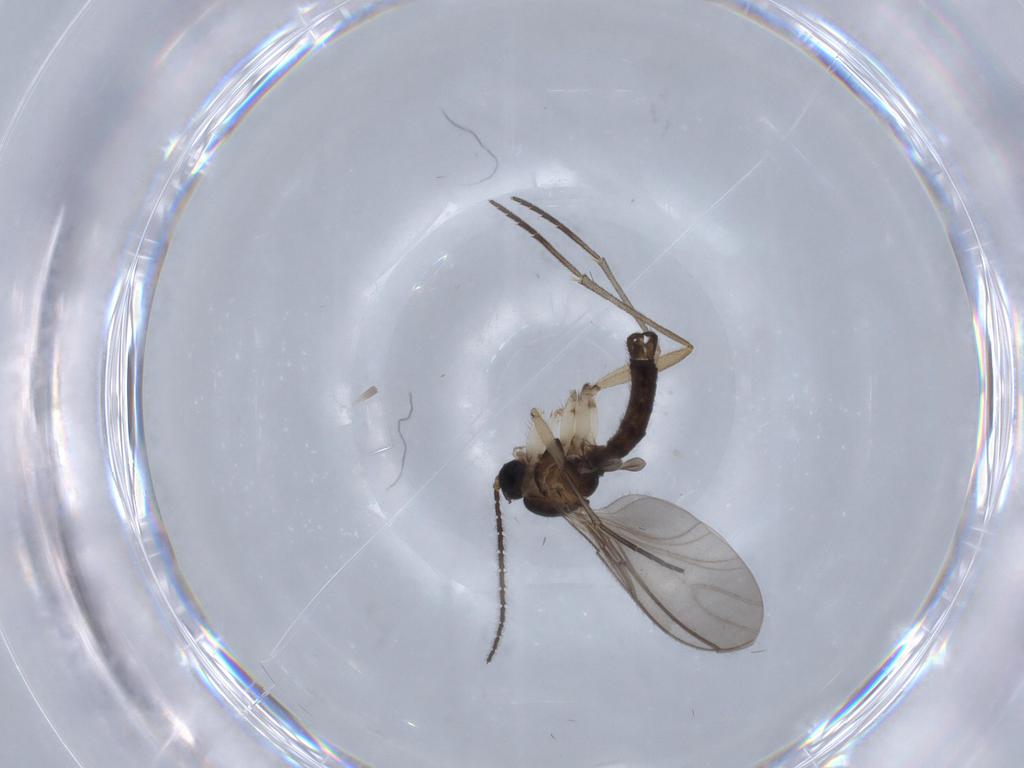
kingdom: Animalia
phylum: Arthropoda
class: Insecta
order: Diptera
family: Sciaridae
